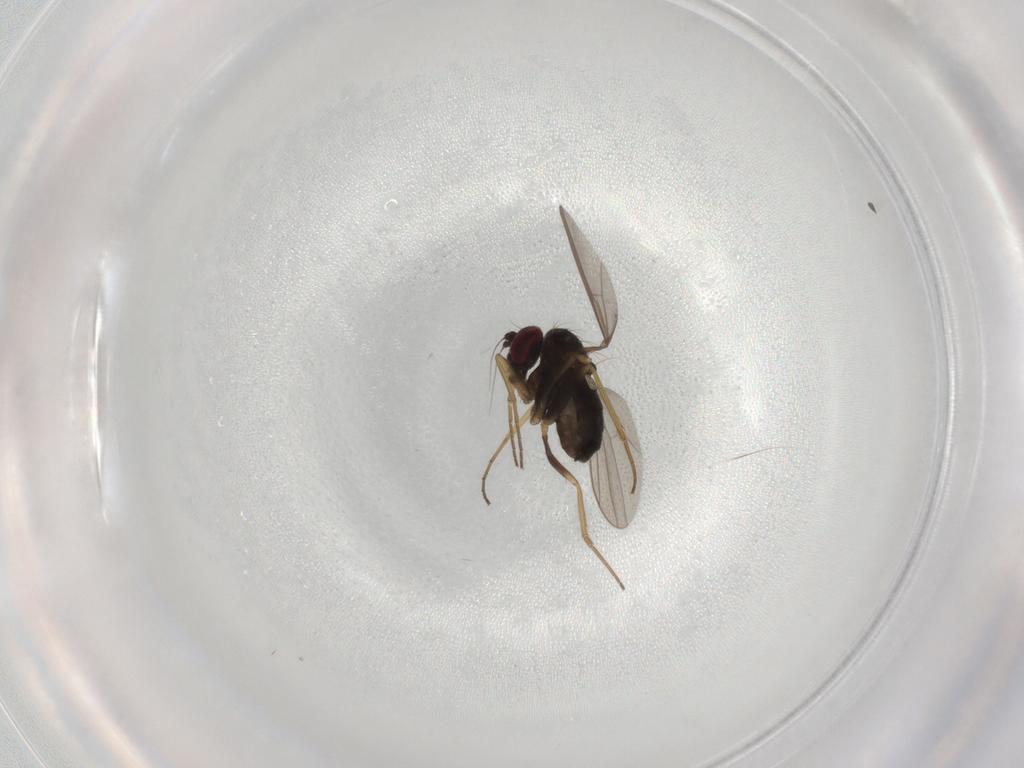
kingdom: Animalia
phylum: Arthropoda
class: Insecta
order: Diptera
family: Dolichopodidae
